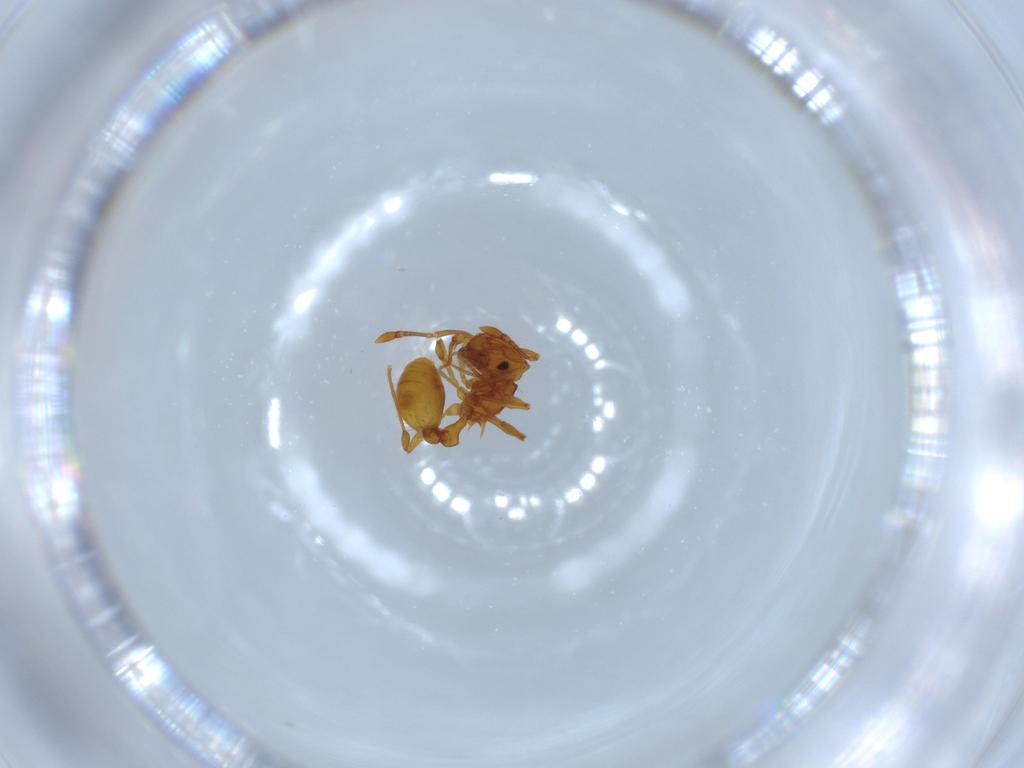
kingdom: Animalia
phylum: Arthropoda
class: Insecta
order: Hymenoptera
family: Formicidae
